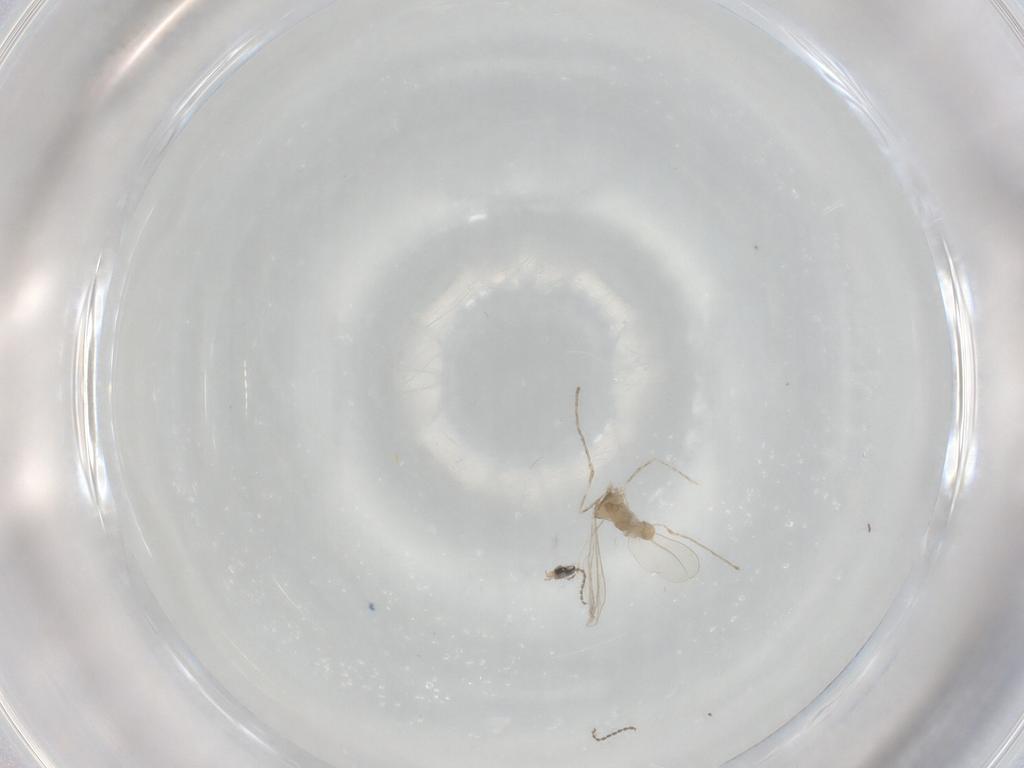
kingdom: Animalia
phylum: Arthropoda
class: Insecta
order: Diptera
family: Cecidomyiidae
